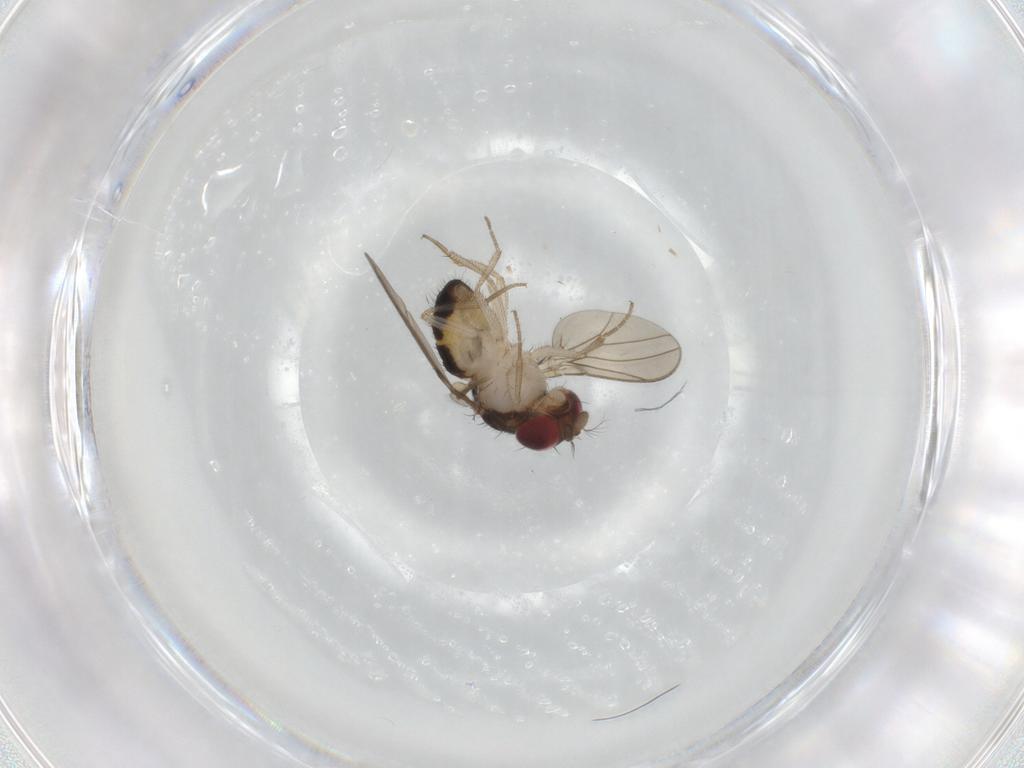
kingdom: Animalia
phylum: Arthropoda
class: Insecta
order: Diptera
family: Drosophilidae
